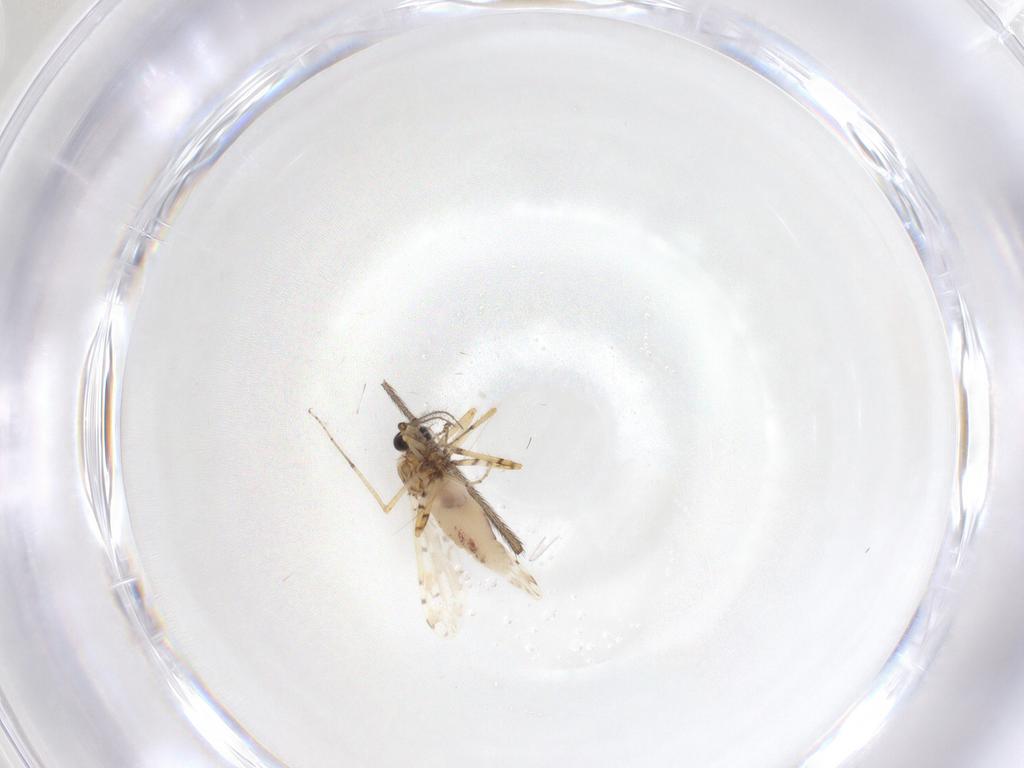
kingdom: Animalia
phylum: Arthropoda
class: Insecta
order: Diptera
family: Ceratopogonidae
